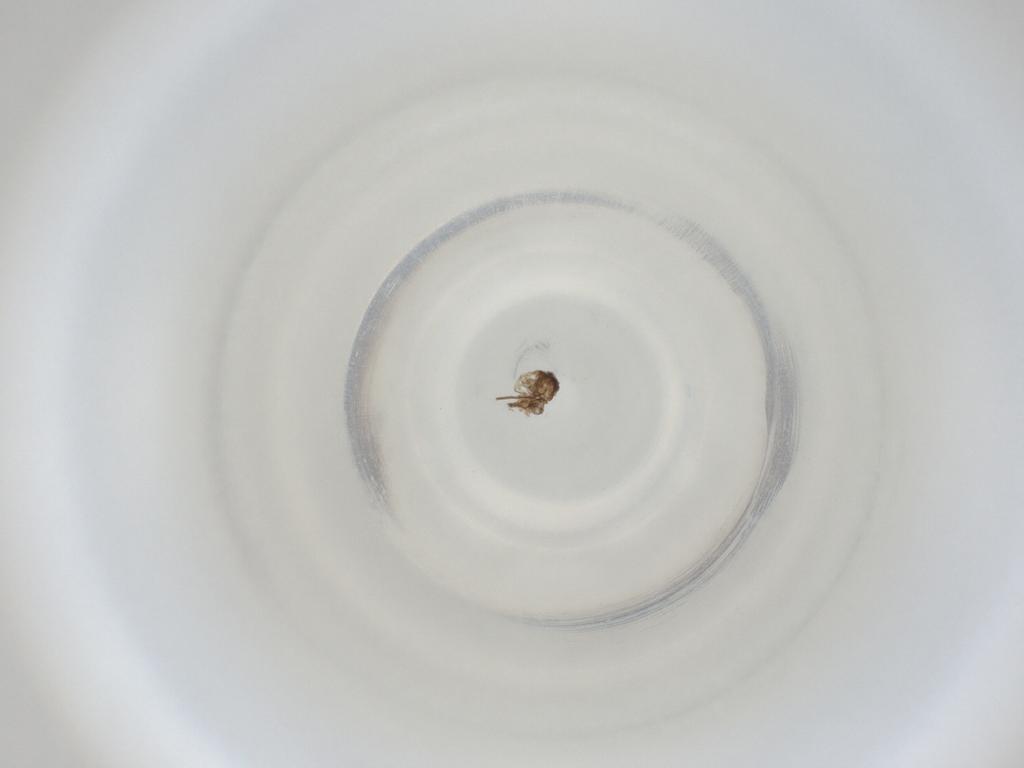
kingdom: Animalia
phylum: Arthropoda
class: Insecta
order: Diptera
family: Cecidomyiidae
